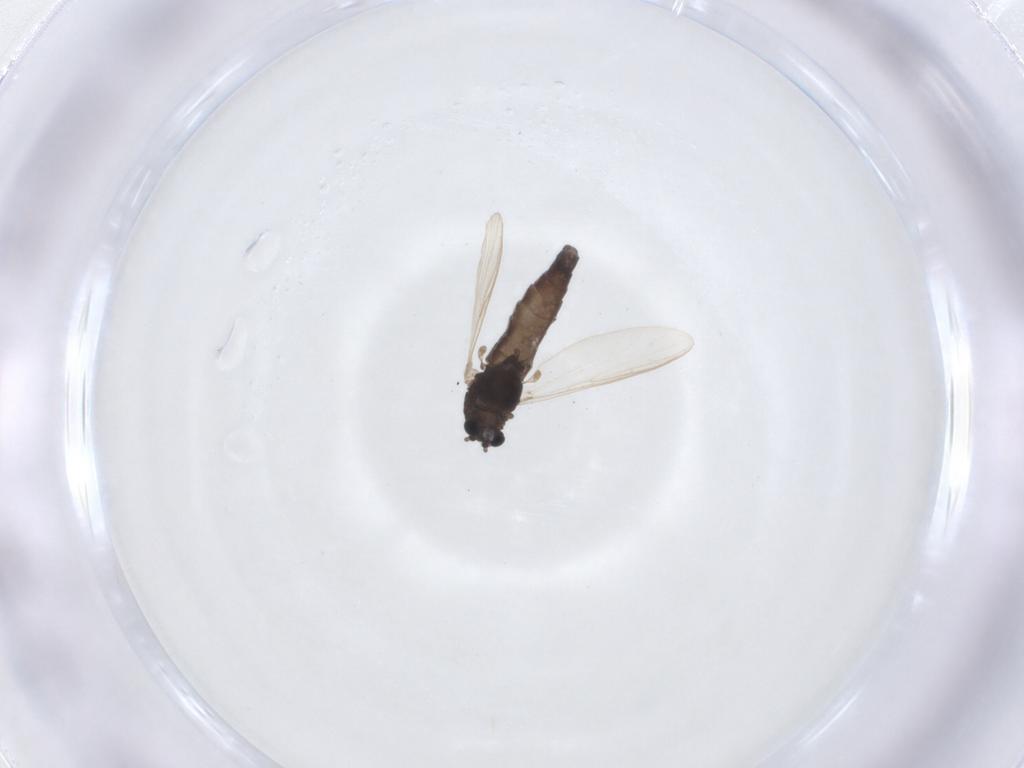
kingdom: Animalia
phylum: Arthropoda
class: Insecta
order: Diptera
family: Chironomidae
